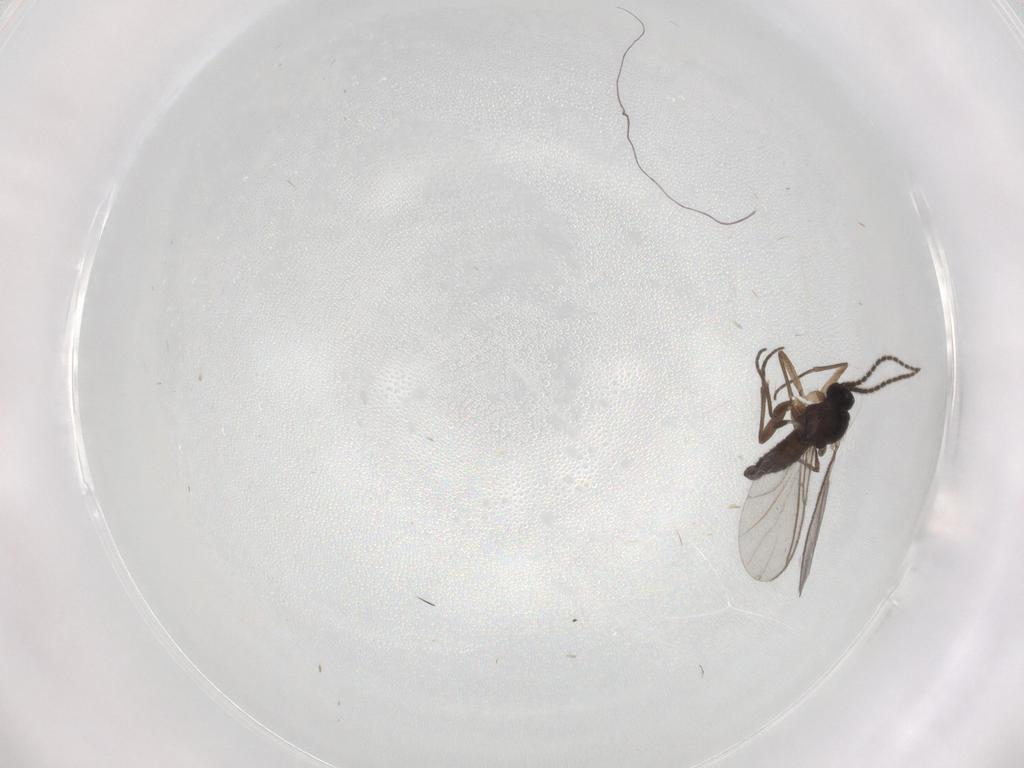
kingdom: Animalia
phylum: Arthropoda
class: Insecta
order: Diptera
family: Sciaridae
